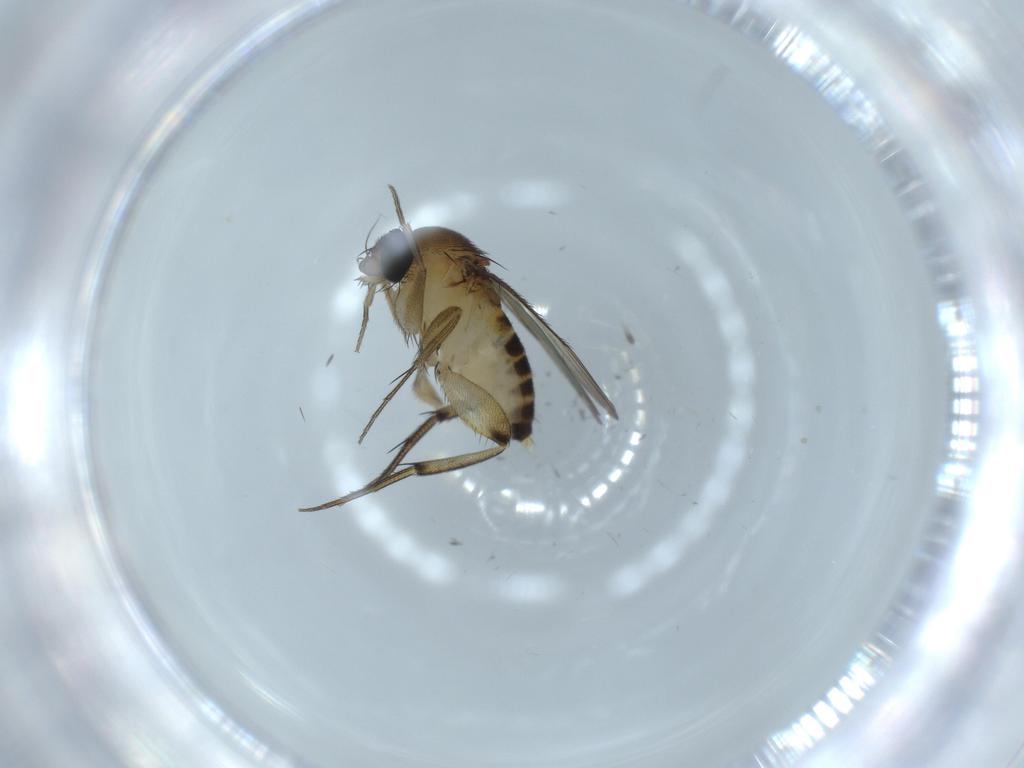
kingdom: Animalia
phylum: Arthropoda
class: Insecta
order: Diptera
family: Phoridae
